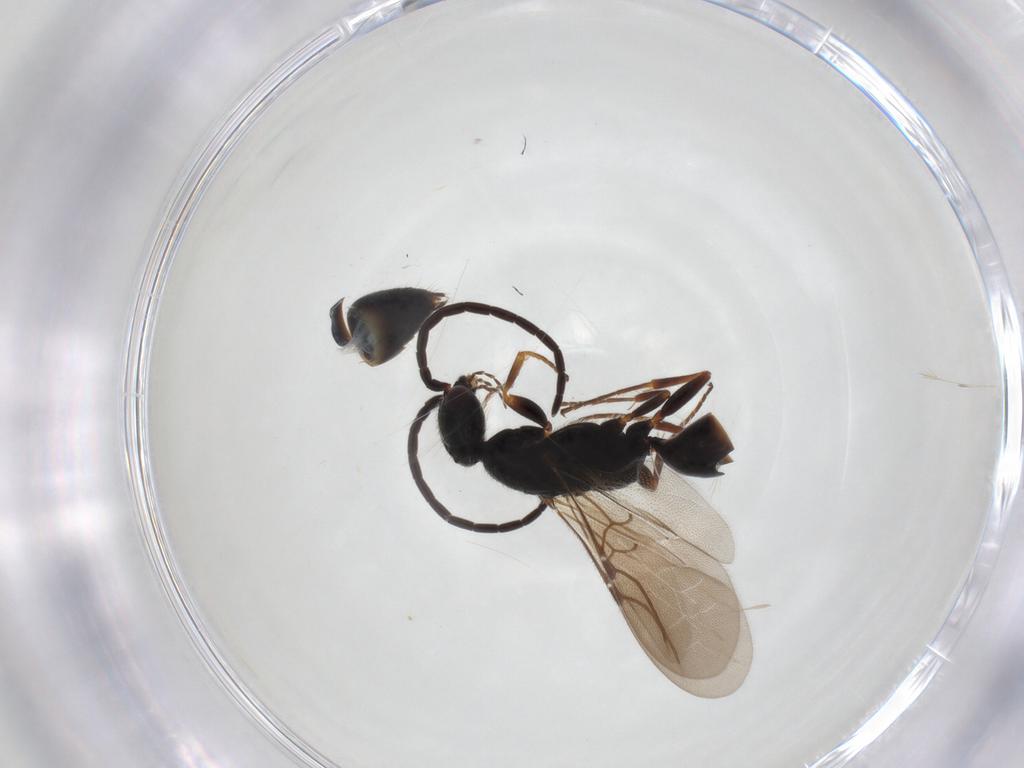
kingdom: Animalia
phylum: Arthropoda
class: Insecta
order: Hymenoptera
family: Bethylidae
